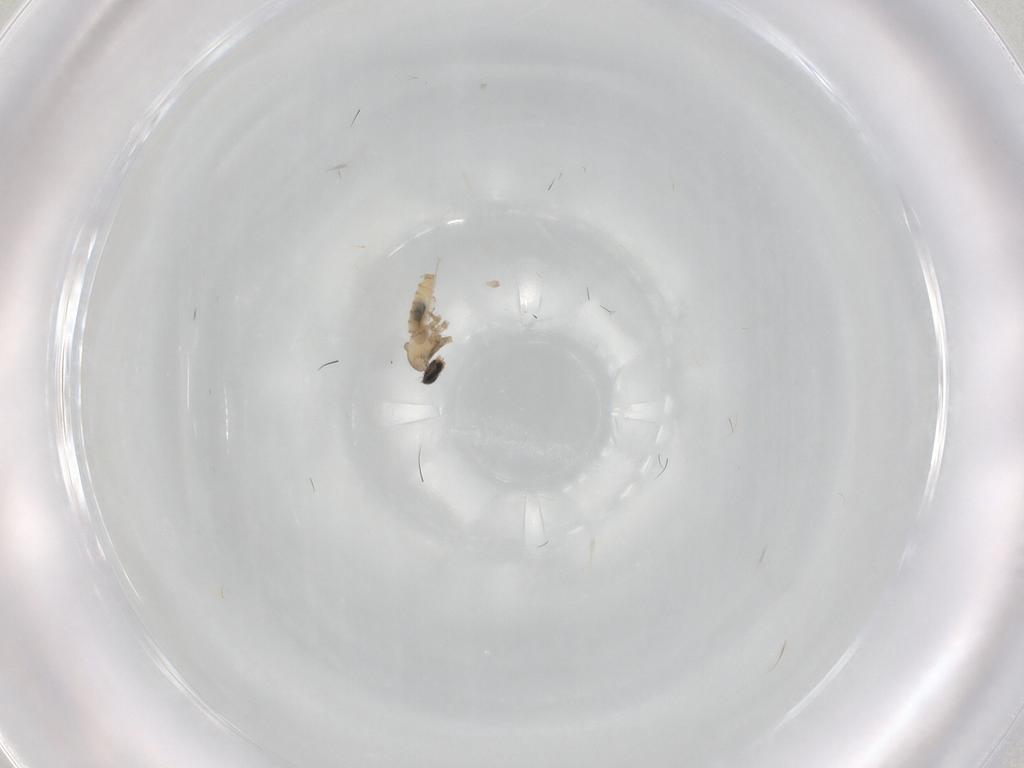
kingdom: Animalia
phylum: Arthropoda
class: Insecta
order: Diptera
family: Cecidomyiidae
